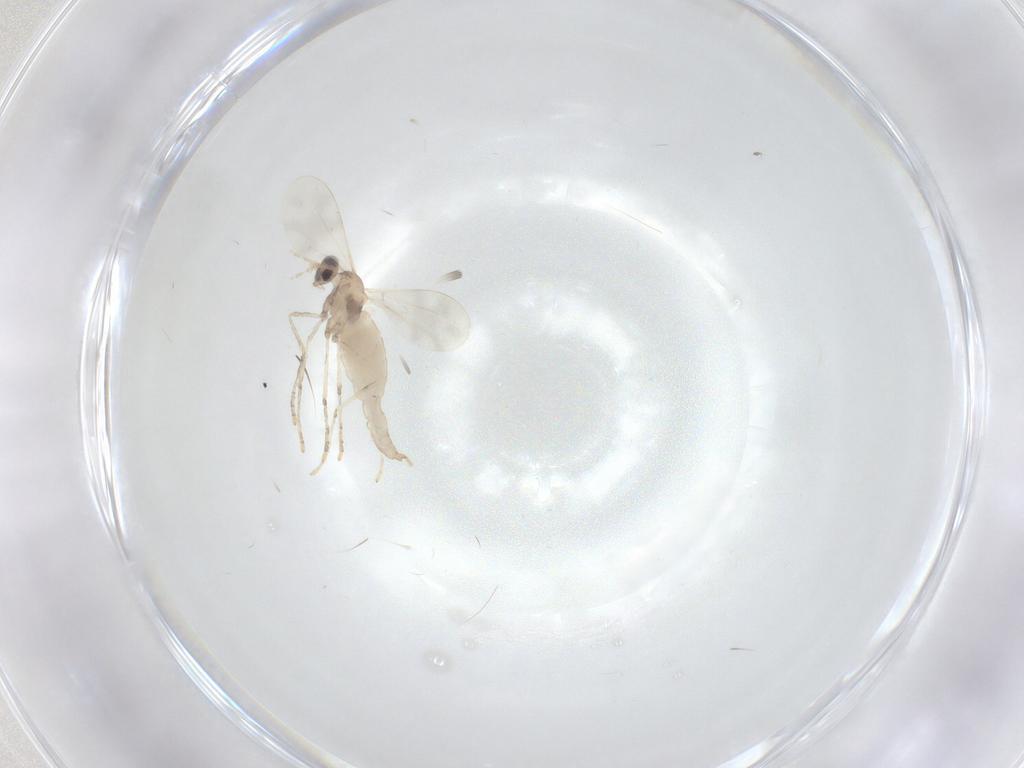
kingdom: Animalia
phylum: Arthropoda
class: Insecta
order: Diptera
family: Cecidomyiidae
